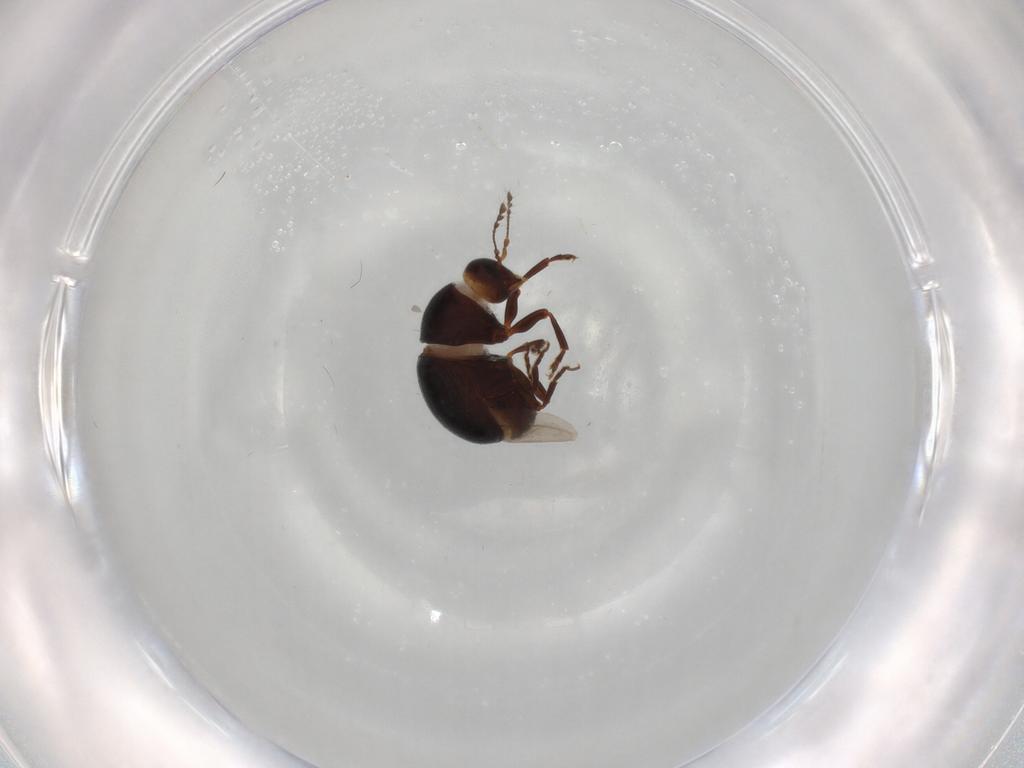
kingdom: Animalia
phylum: Arthropoda
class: Insecta
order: Coleoptera
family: Anthribidae
